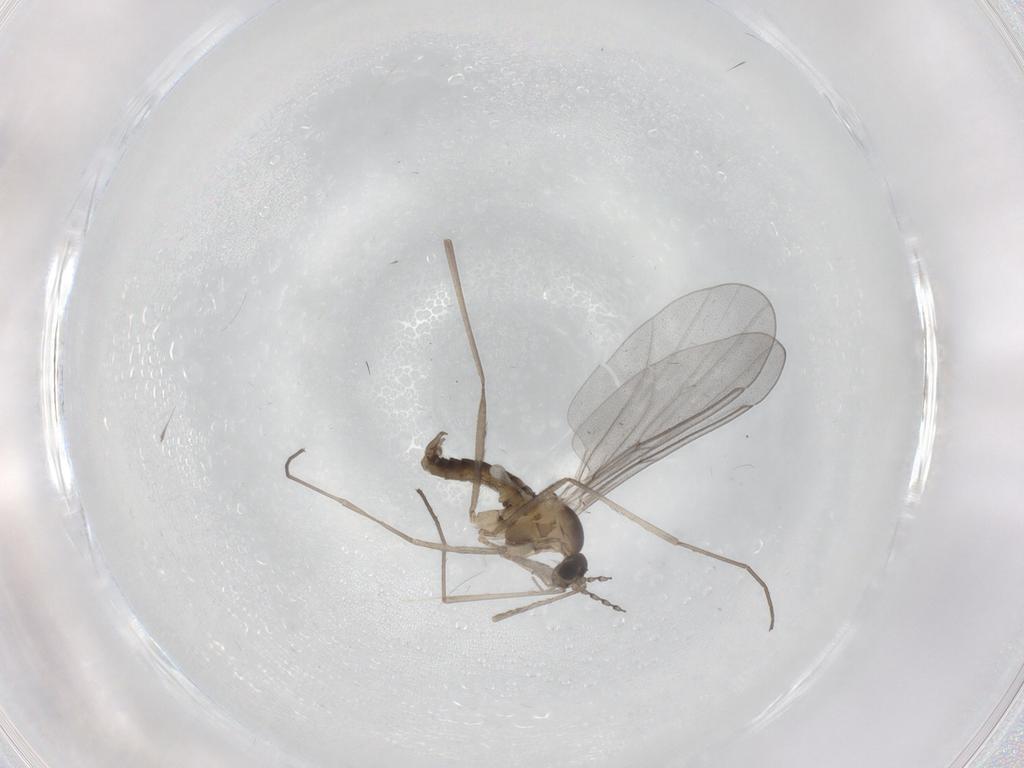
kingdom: Animalia
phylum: Arthropoda
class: Insecta
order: Diptera
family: Cecidomyiidae
